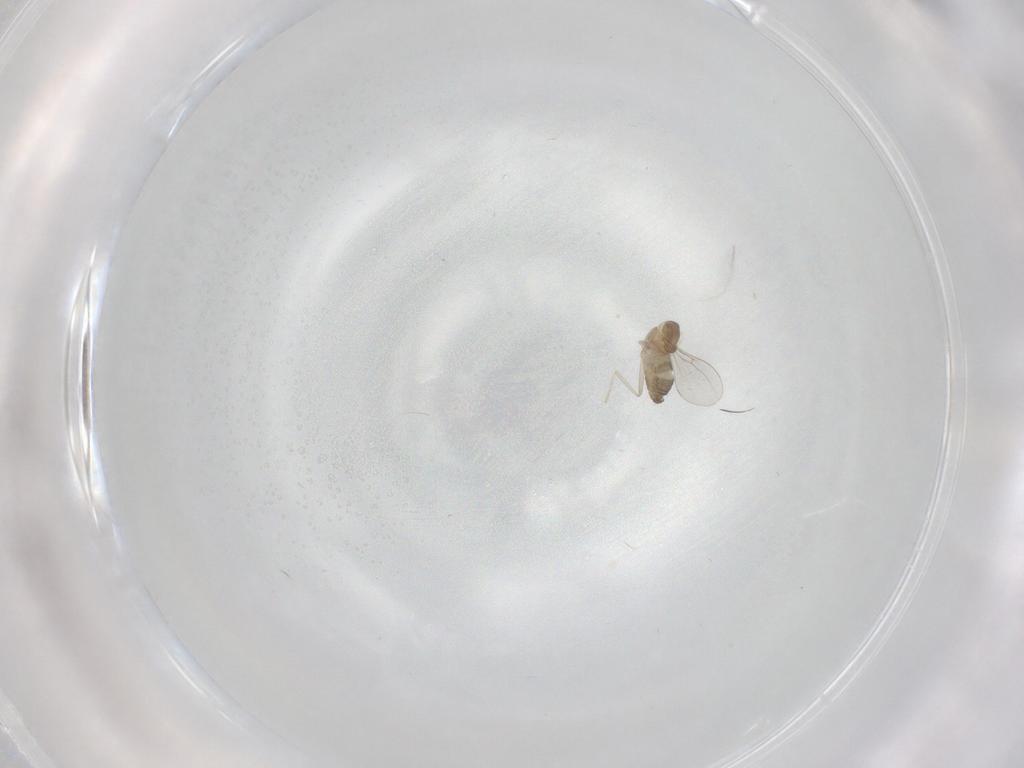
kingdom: Animalia
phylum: Arthropoda
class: Insecta
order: Diptera
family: Cecidomyiidae
